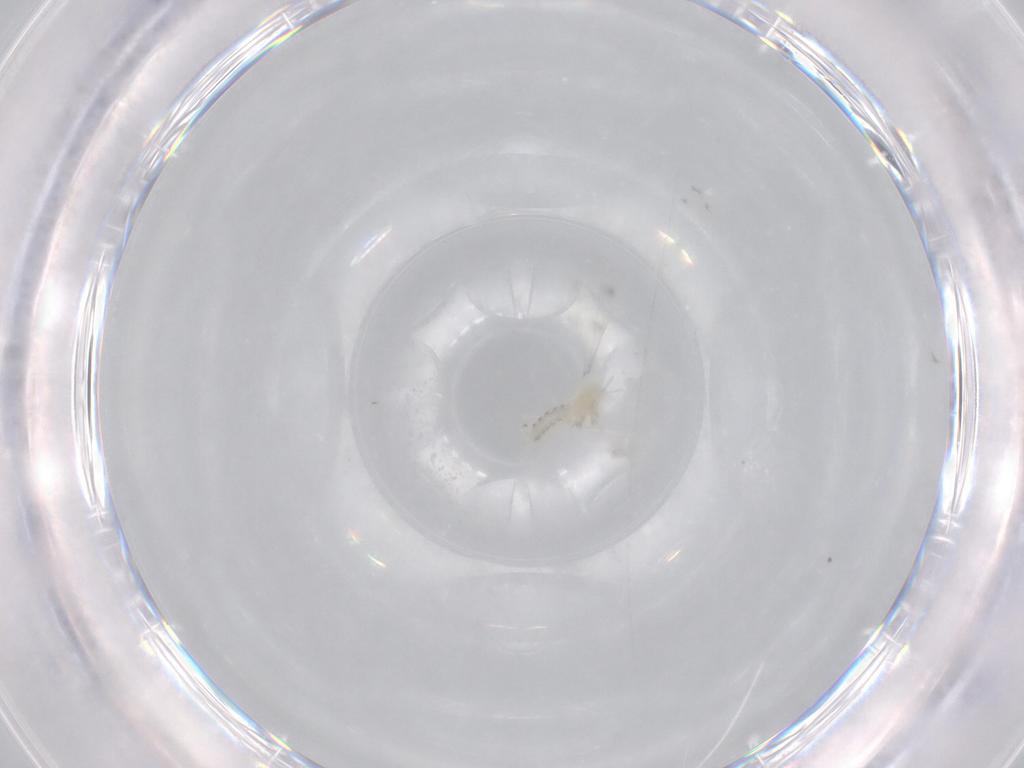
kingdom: Animalia
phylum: Arthropoda
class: Insecta
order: Diptera
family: Cecidomyiidae
